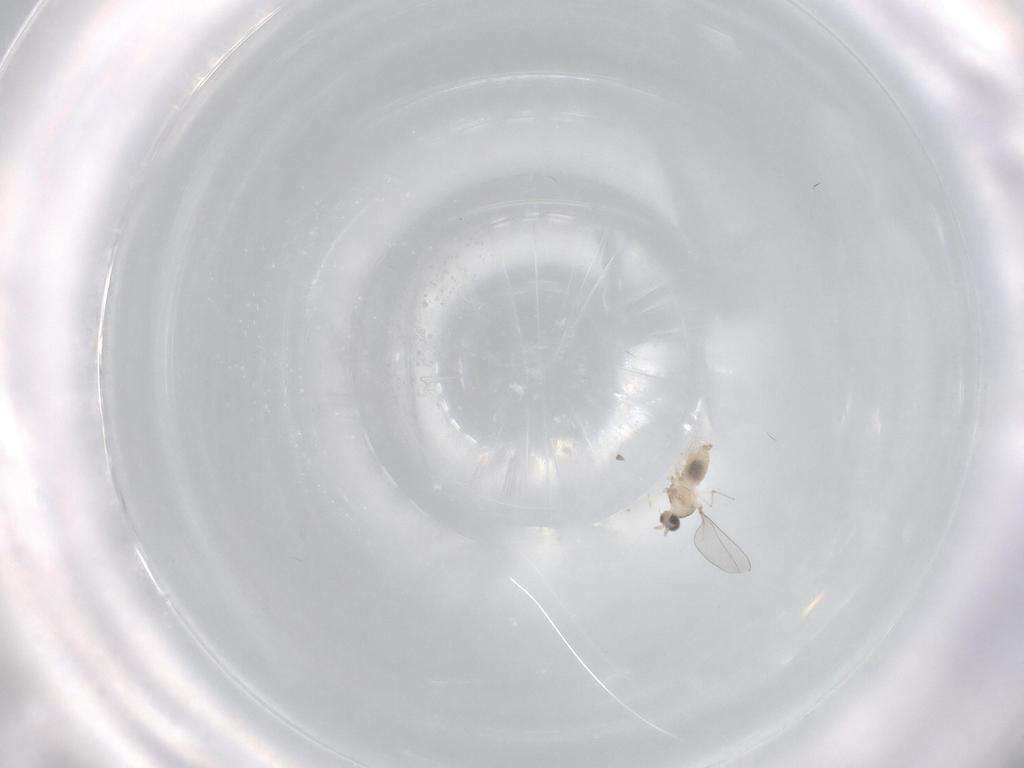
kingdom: Animalia
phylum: Arthropoda
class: Insecta
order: Diptera
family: Cecidomyiidae
